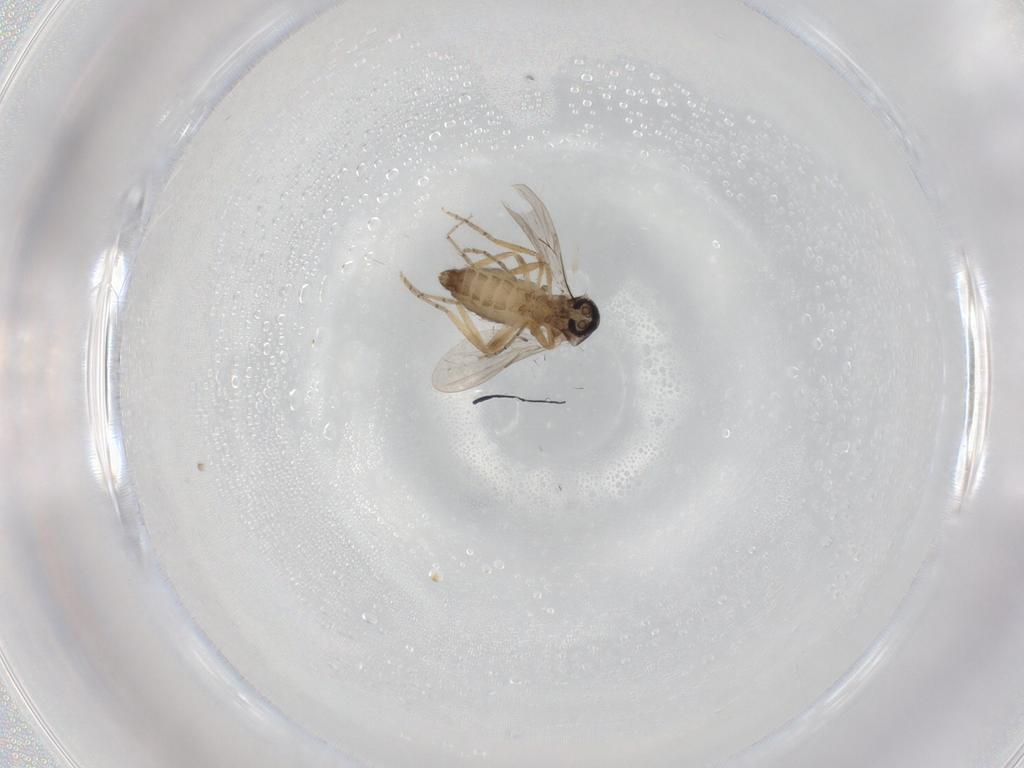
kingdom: Animalia
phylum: Arthropoda
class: Insecta
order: Diptera
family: Ceratopogonidae
